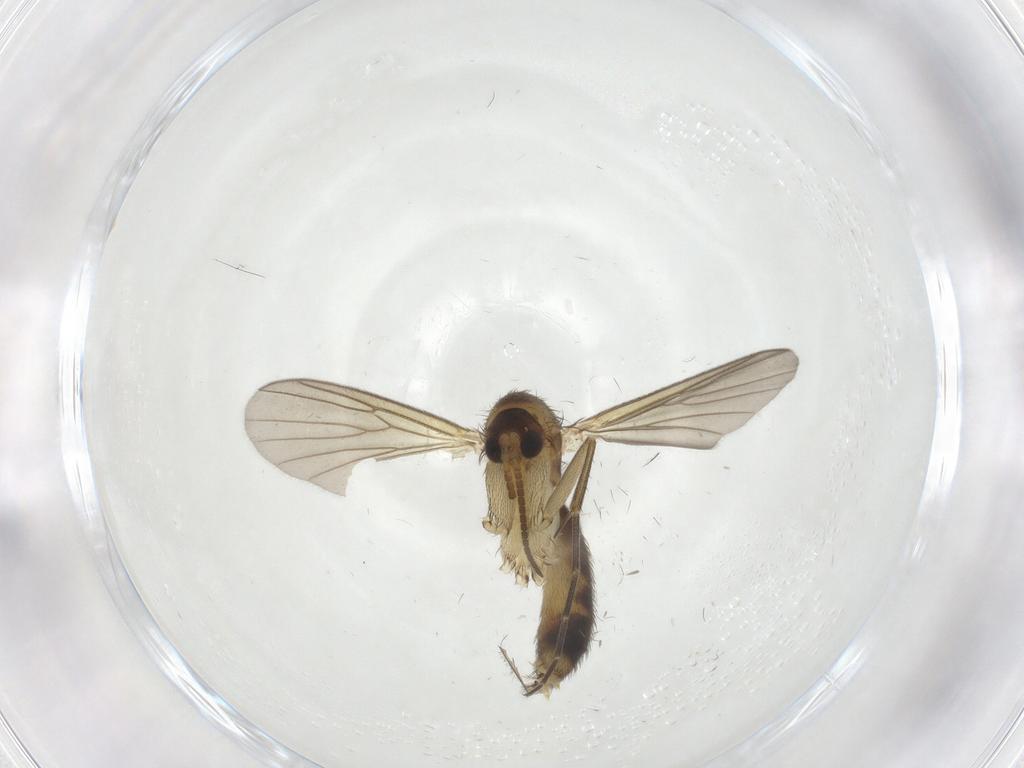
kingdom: Animalia
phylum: Arthropoda
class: Insecta
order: Diptera
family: Mycetophilidae
